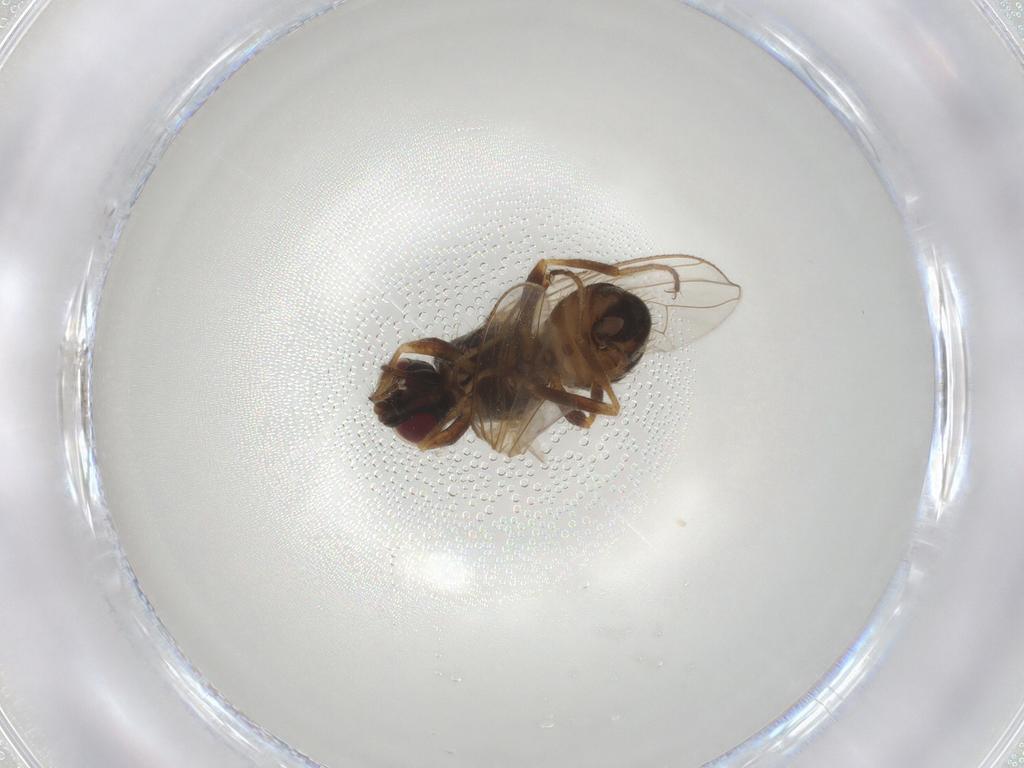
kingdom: Animalia
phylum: Arthropoda
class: Insecta
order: Diptera
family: Cecidomyiidae
